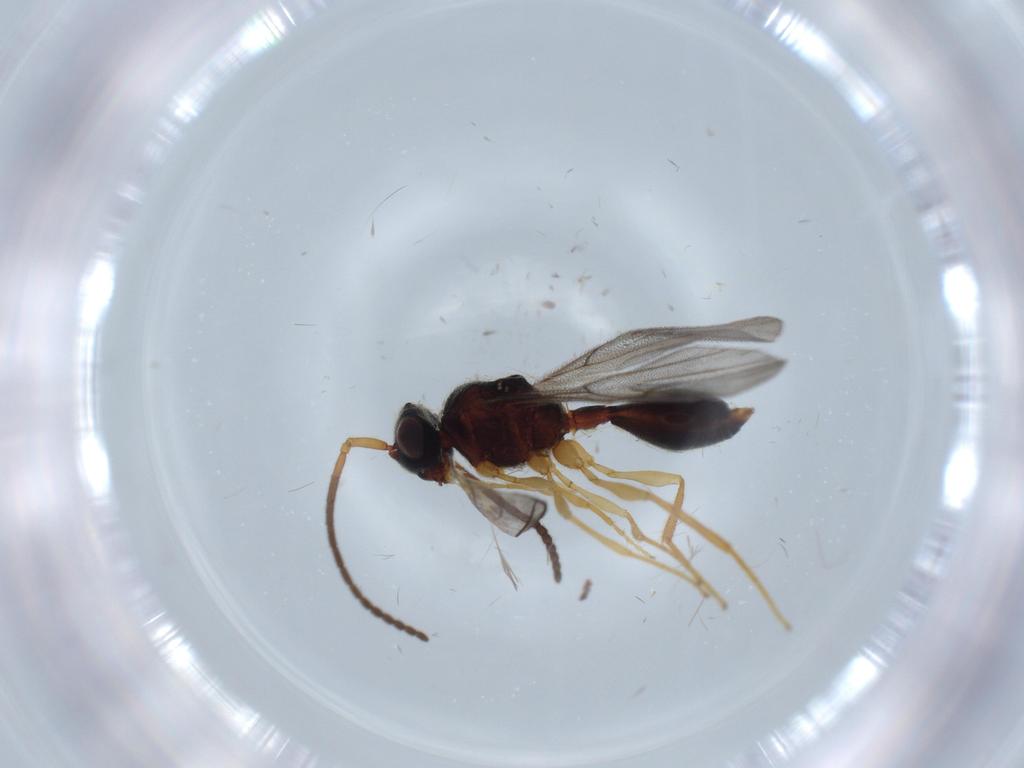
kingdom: Animalia
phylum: Arthropoda
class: Insecta
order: Hymenoptera
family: Diapriidae
